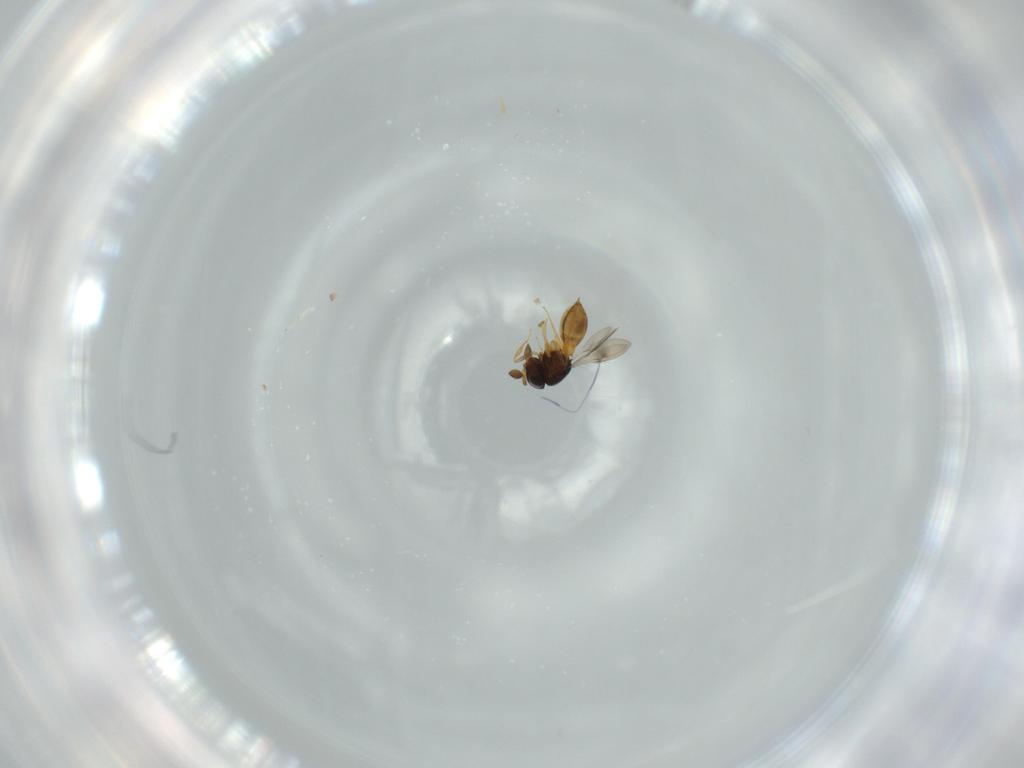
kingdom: Animalia
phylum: Arthropoda
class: Insecta
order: Hymenoptera
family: Scelionidae
